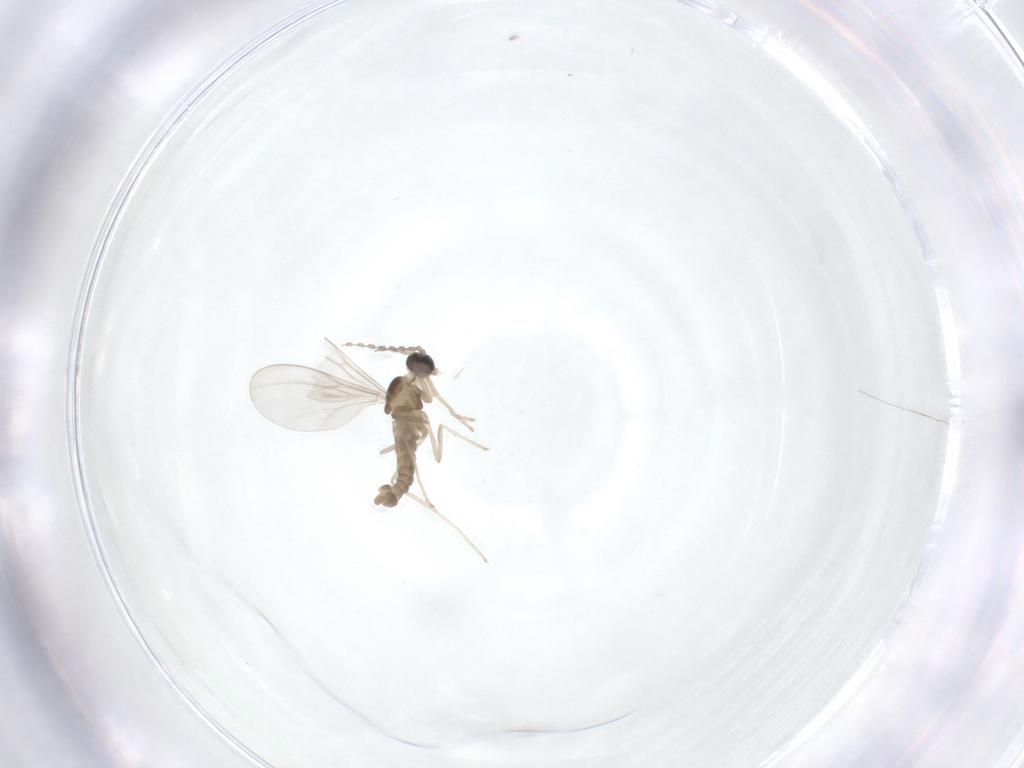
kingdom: Animalia
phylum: Arthropoda
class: Insecta
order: Diptera
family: Cecidomyiidae
